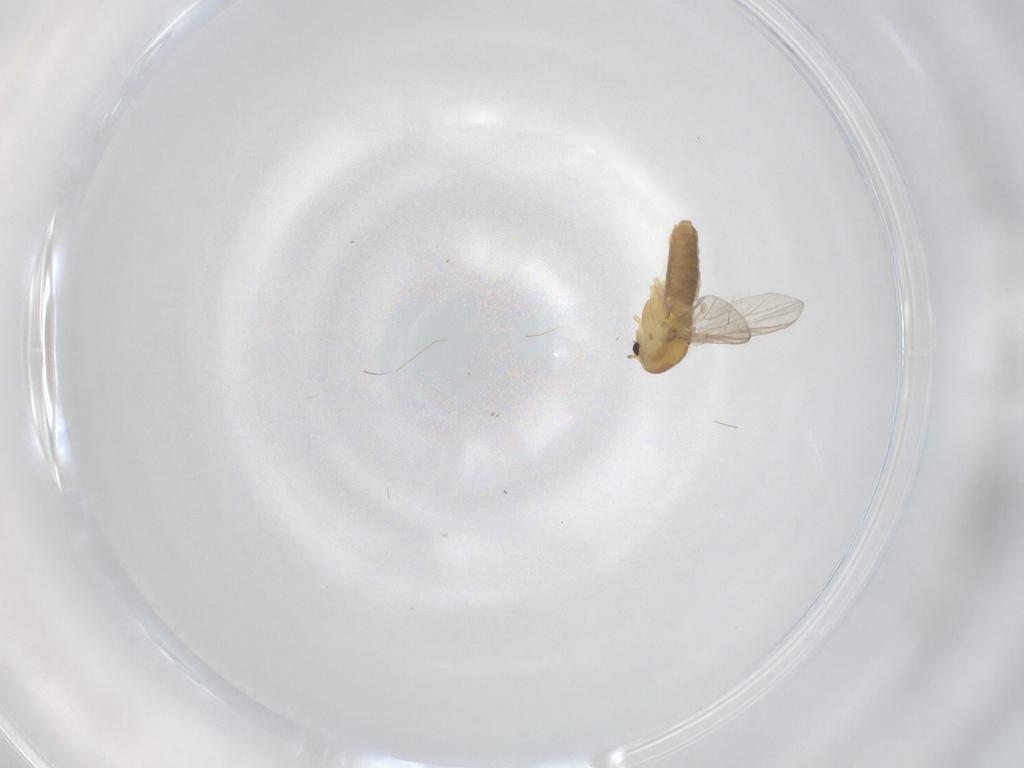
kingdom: Animalia
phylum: Arthropoda
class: Insecta
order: Diptera
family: Chironomidae
